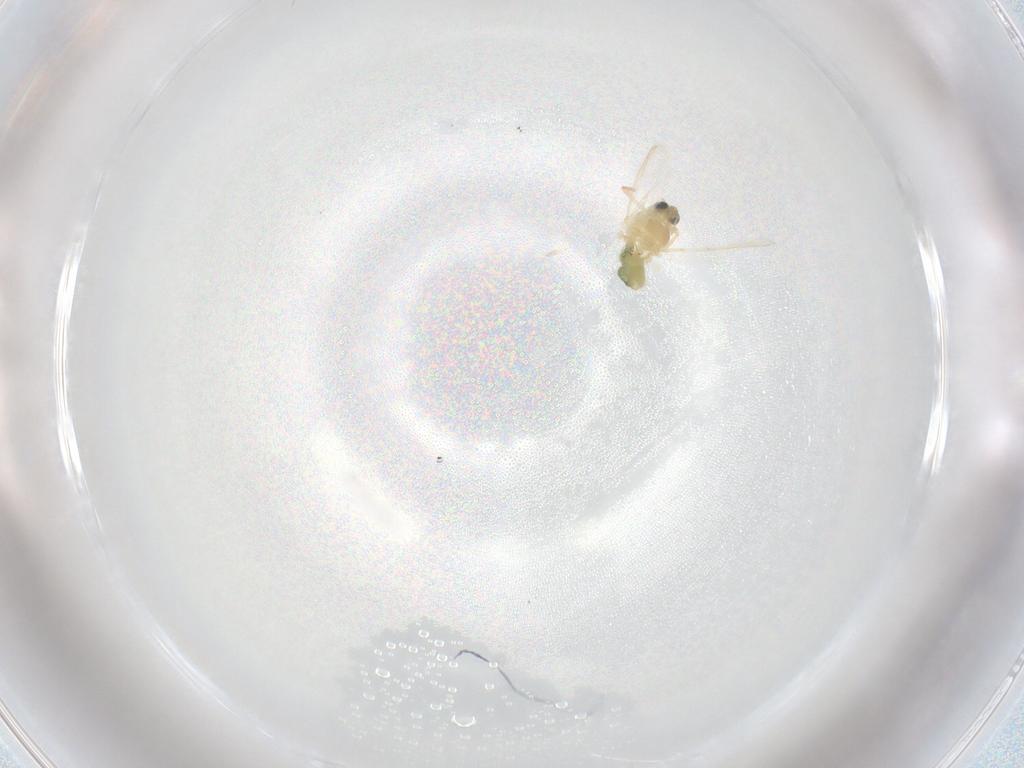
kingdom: Animalia
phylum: Arthropoda
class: Insecta
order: Diptera
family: Chironomidae
